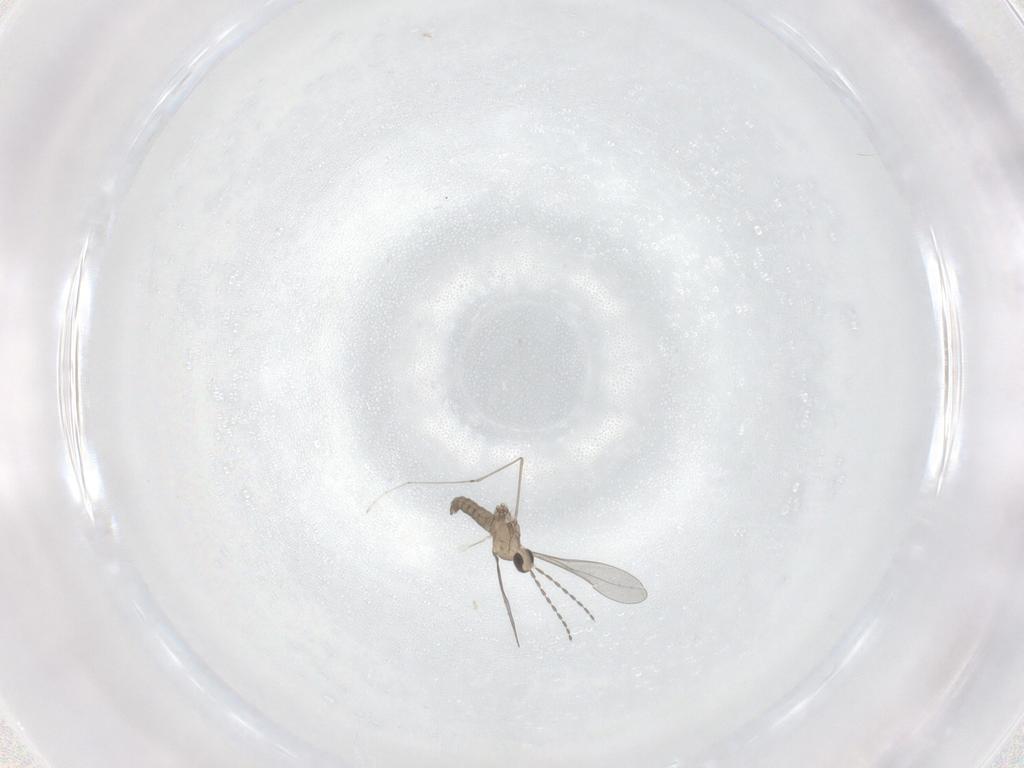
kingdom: Animalia
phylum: Arthropoda
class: Insecta
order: Diptera
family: Cecidomyiidae
